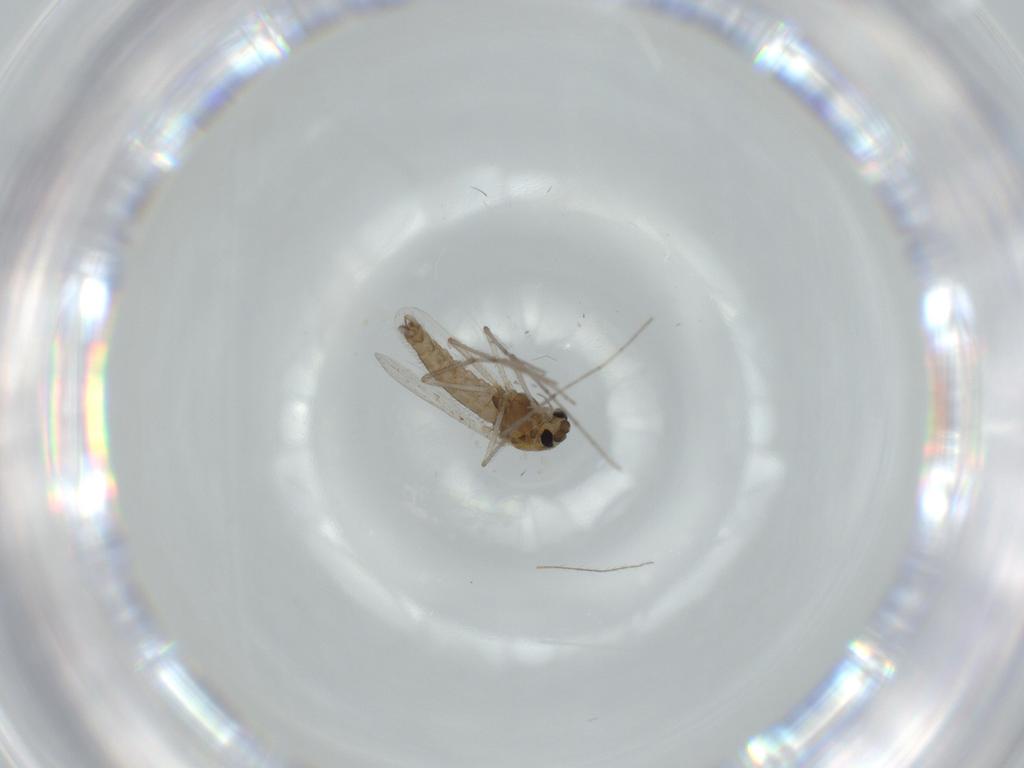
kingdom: Animalia
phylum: Arthropoda
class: Insecta
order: Diptera
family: Chironomidae
